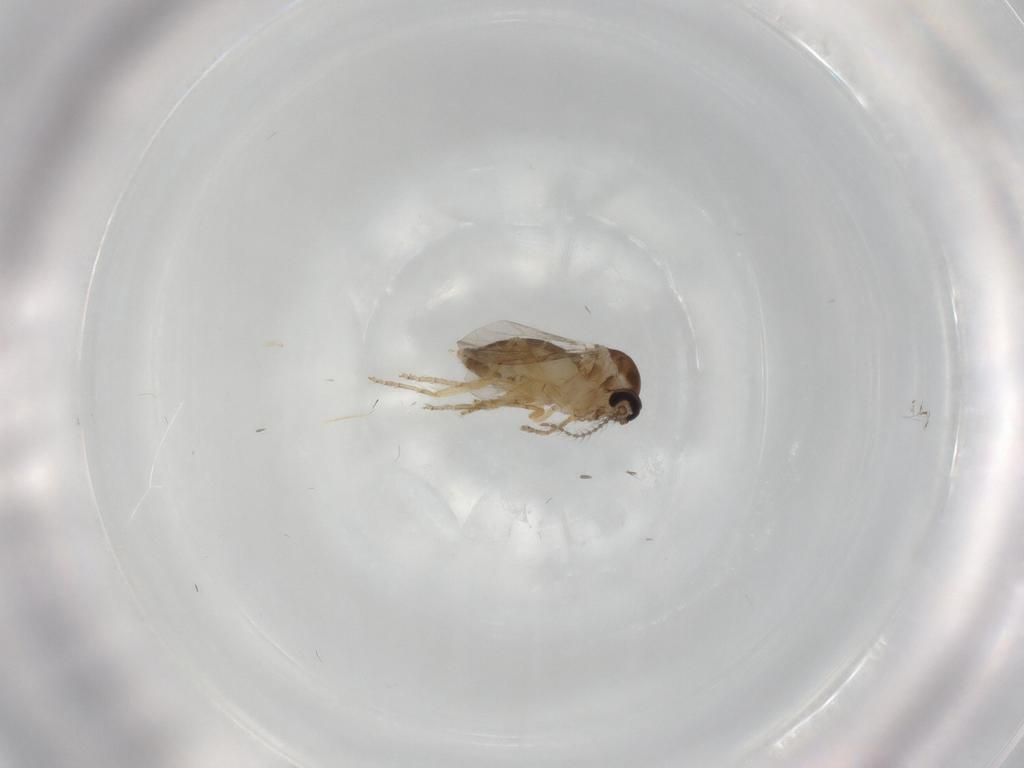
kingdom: Animalia
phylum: Arthropoda
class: Insecta
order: Diptera
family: Ceratopogonidae
